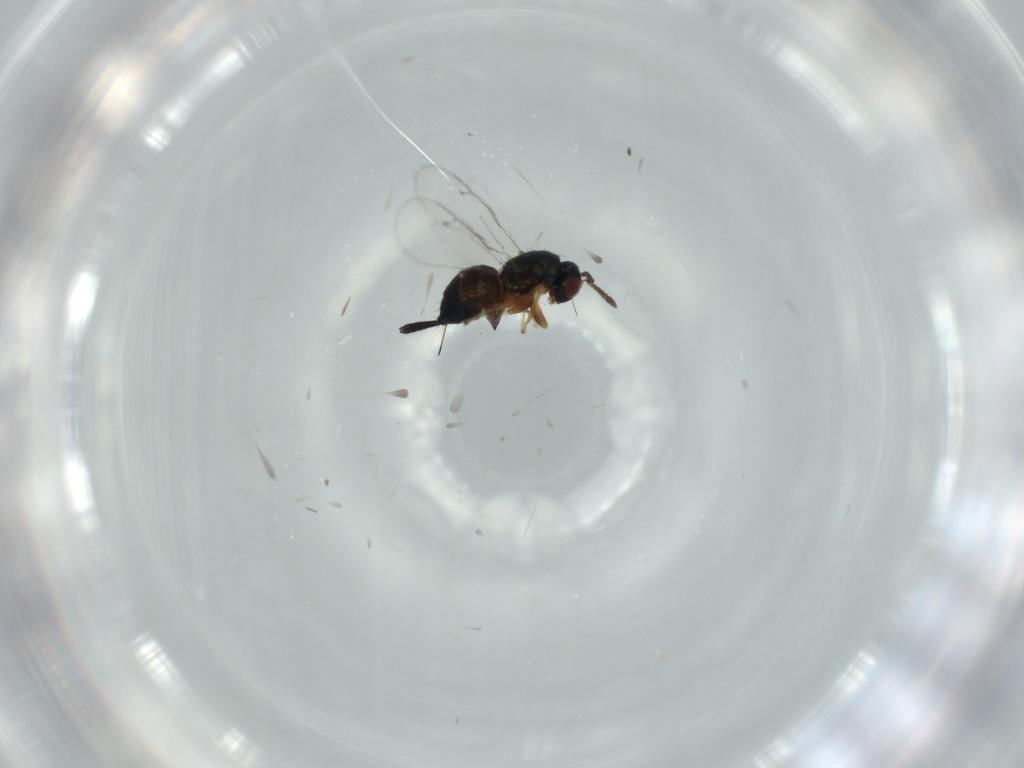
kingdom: Animalia
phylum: Arthropoda
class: Insecta
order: Hymenoptera
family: Torymidae
